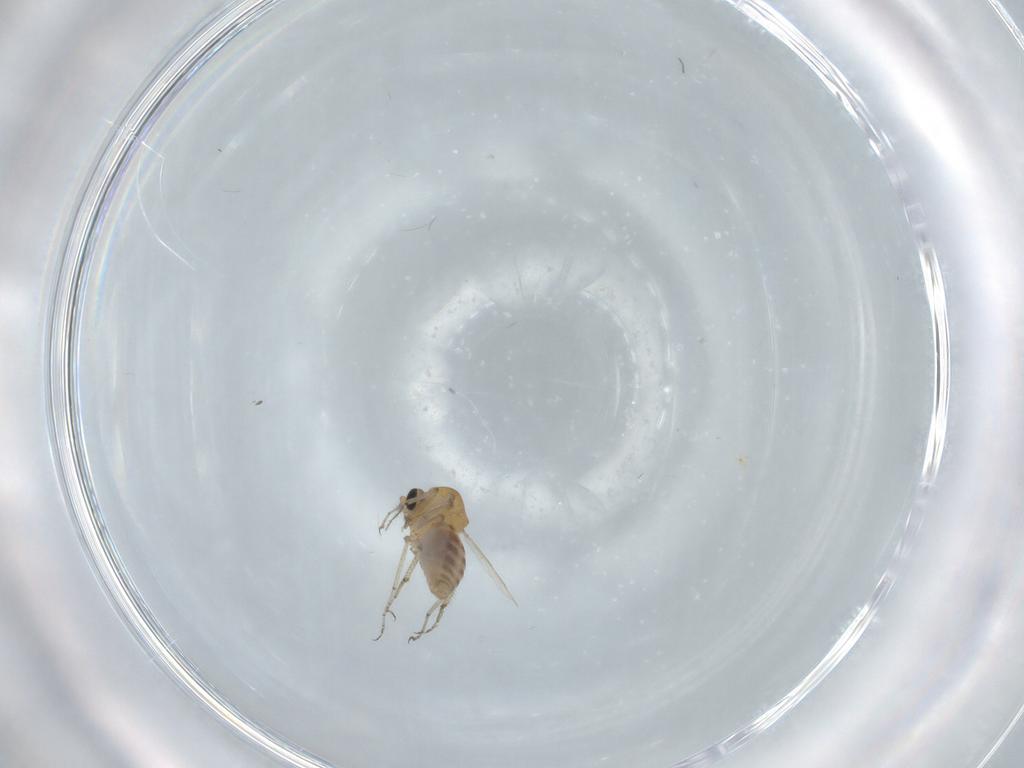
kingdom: Animalia
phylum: Arthropoda
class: Insecta
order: Diptera
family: Ceratopogonidae
